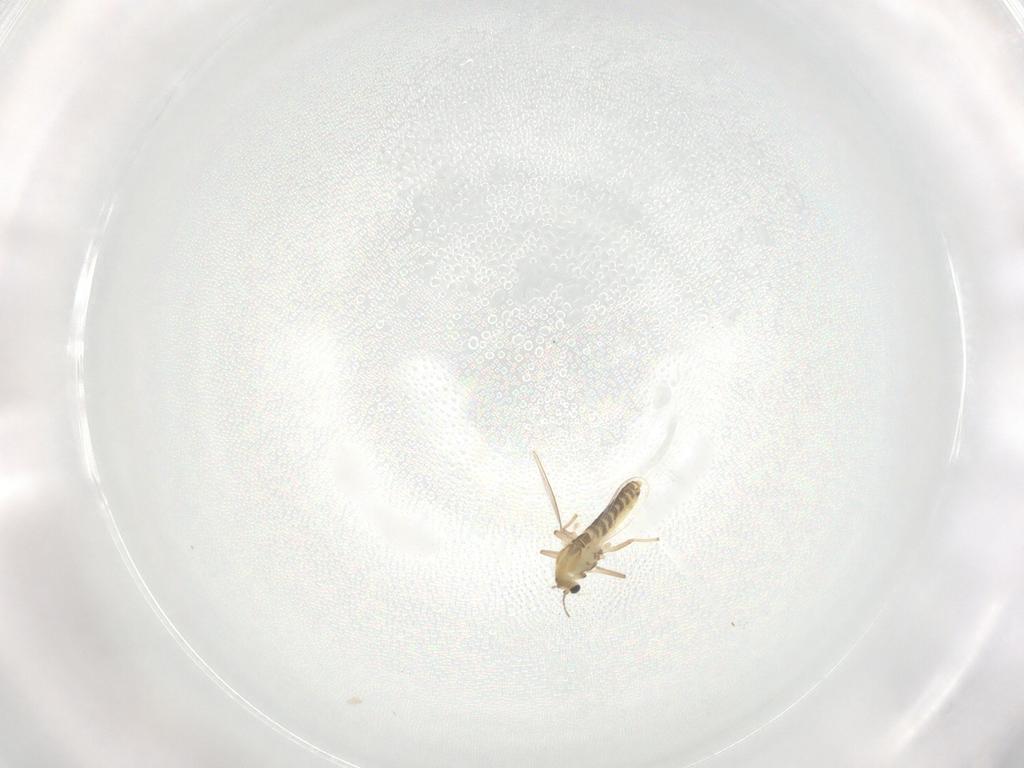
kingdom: Animalia
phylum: Arthropoda
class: Insecta
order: Diptera
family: Chironomidae
